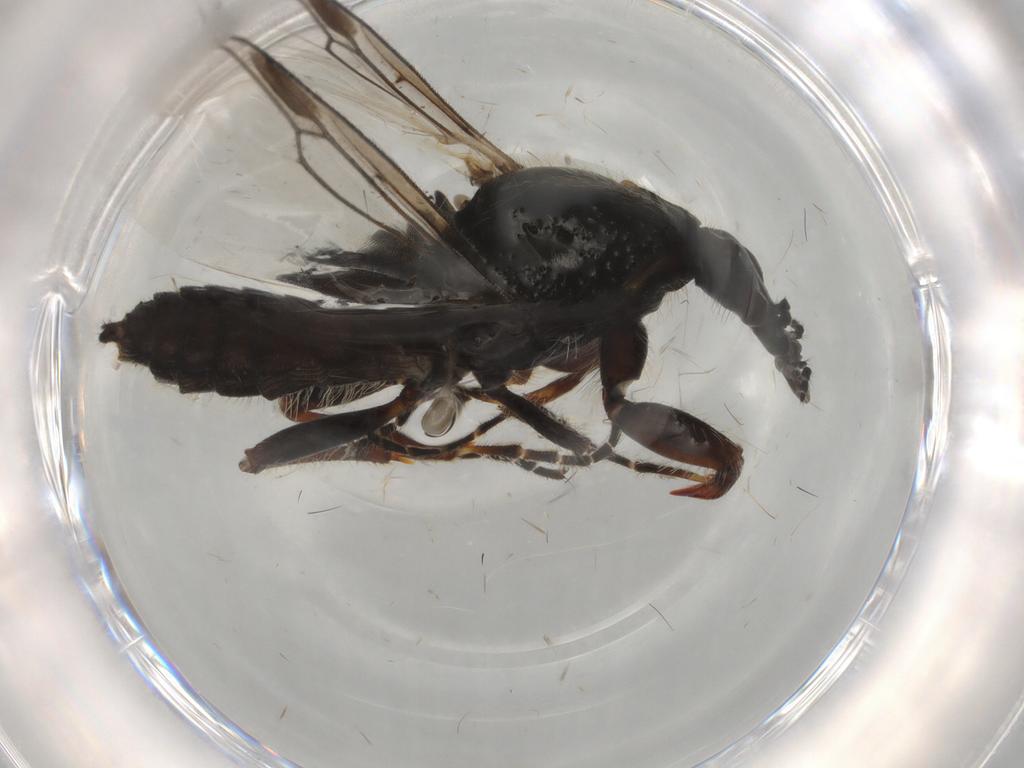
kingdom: Animalia
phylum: Arthropoda
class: Insecta
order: Diptera
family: Bibionidae
